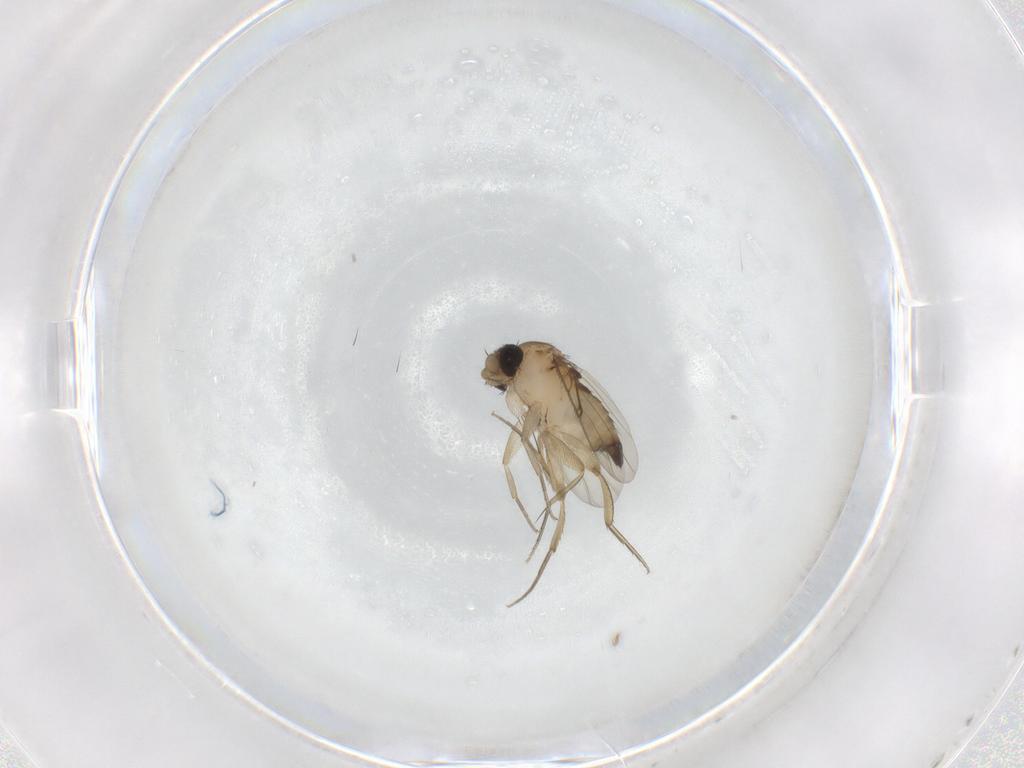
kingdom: Animalia
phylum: Arthropoda
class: Insecta
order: Diptera
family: Phoridae
